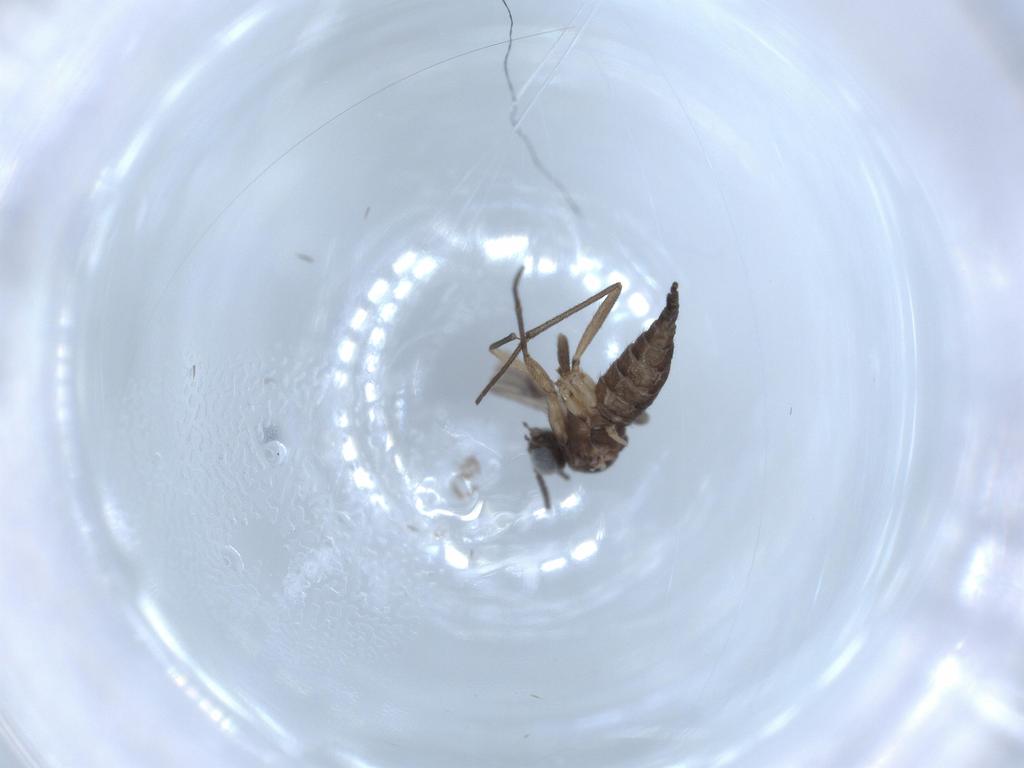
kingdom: Animalia
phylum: Arthropoda
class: Insecta
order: Diptera
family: Sciaridae
